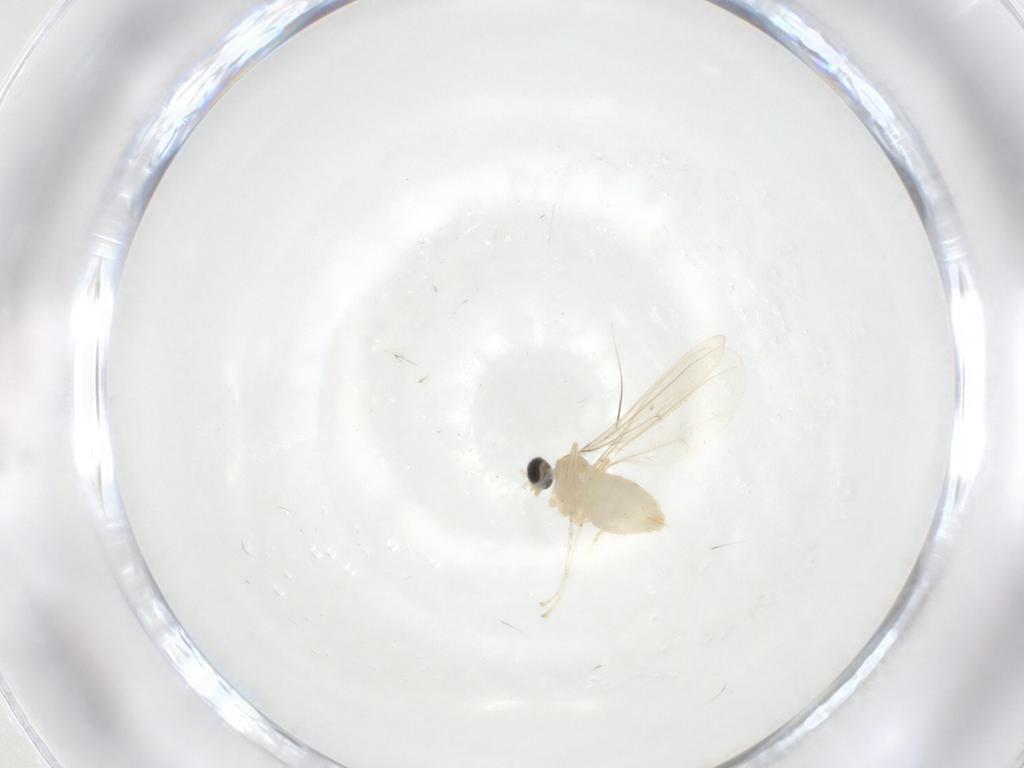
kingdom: Animalia
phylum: Arthropoda
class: Insecta
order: Diptera
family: Cecidomyiidae
